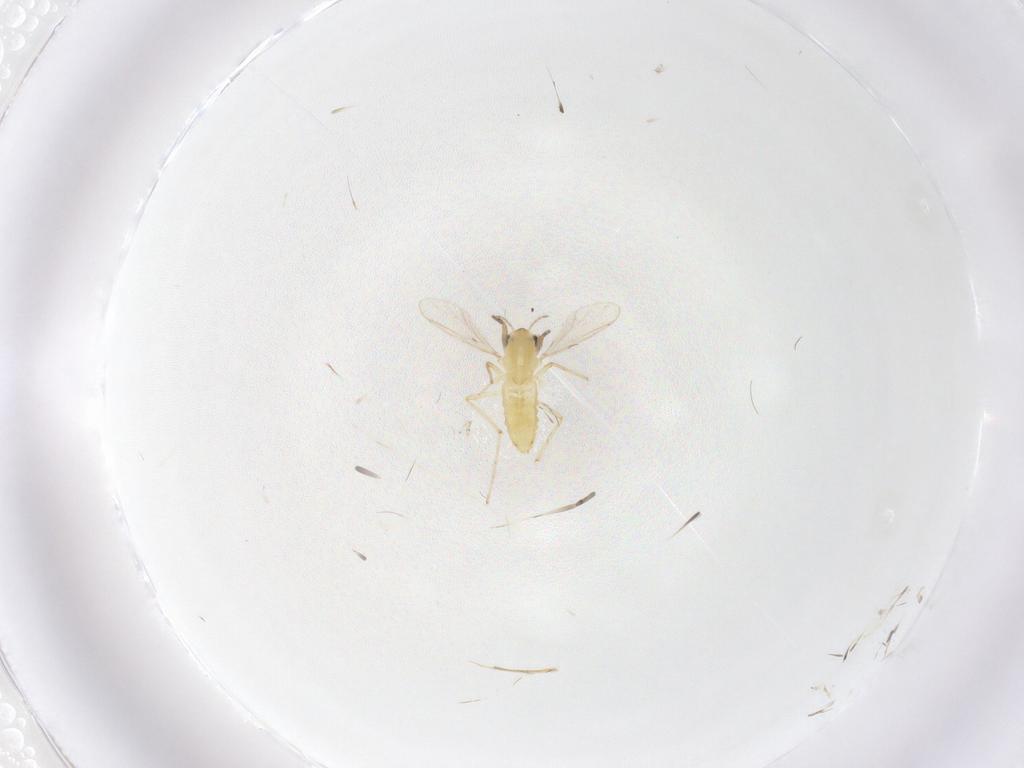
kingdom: Animalia
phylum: Arthropoda
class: Insecta
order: Diptera
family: Chironomidae
